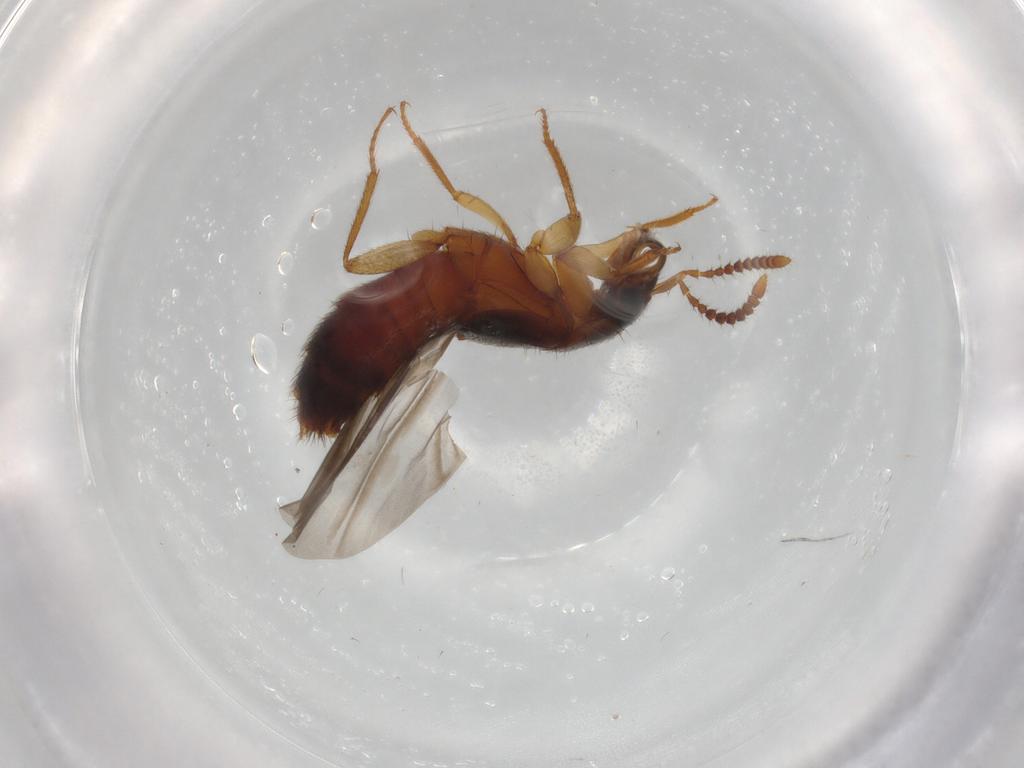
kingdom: Animalia
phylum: Arthropoda
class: Insecta
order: Coleoptera
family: Staphylinidae
